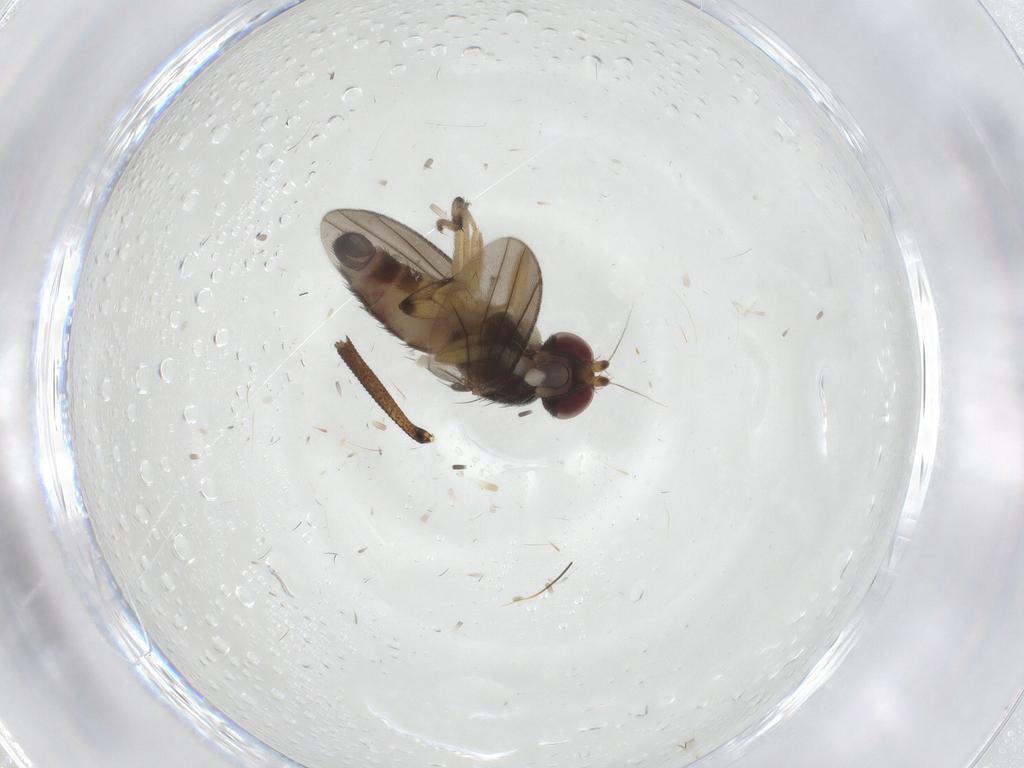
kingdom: Animalia
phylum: Arthropoda
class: Insecta
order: Diptera
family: Clusiidae
